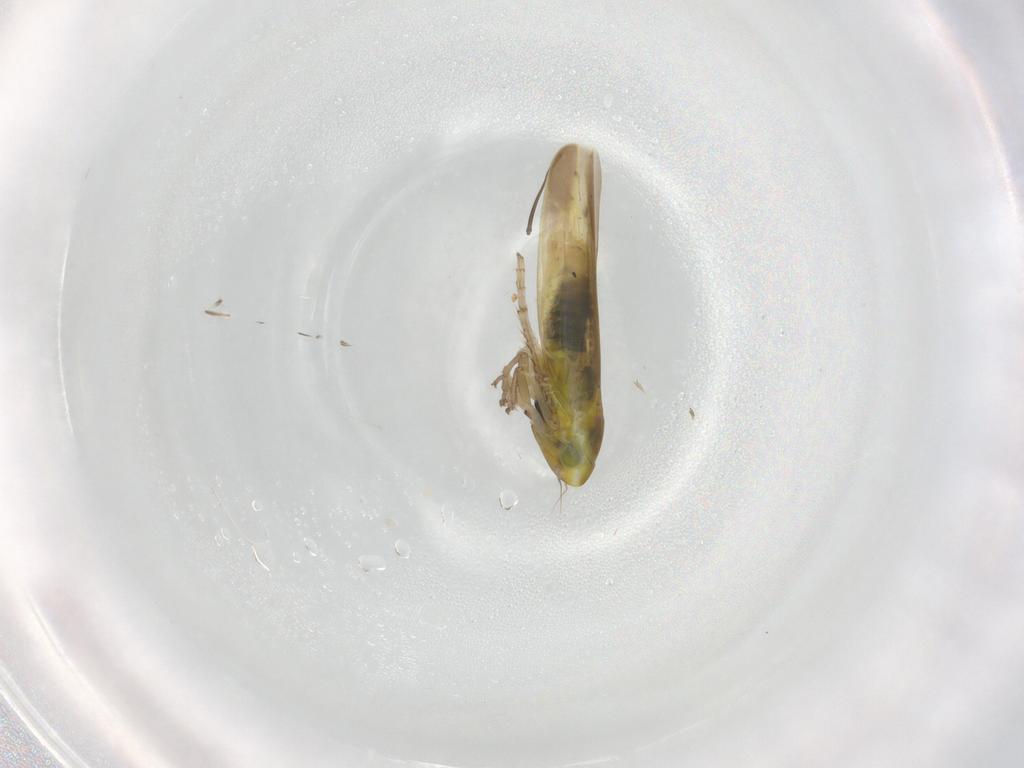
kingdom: Animalia
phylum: Arthropoda
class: Insecta
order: Hemiptera
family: Cicadellidae
